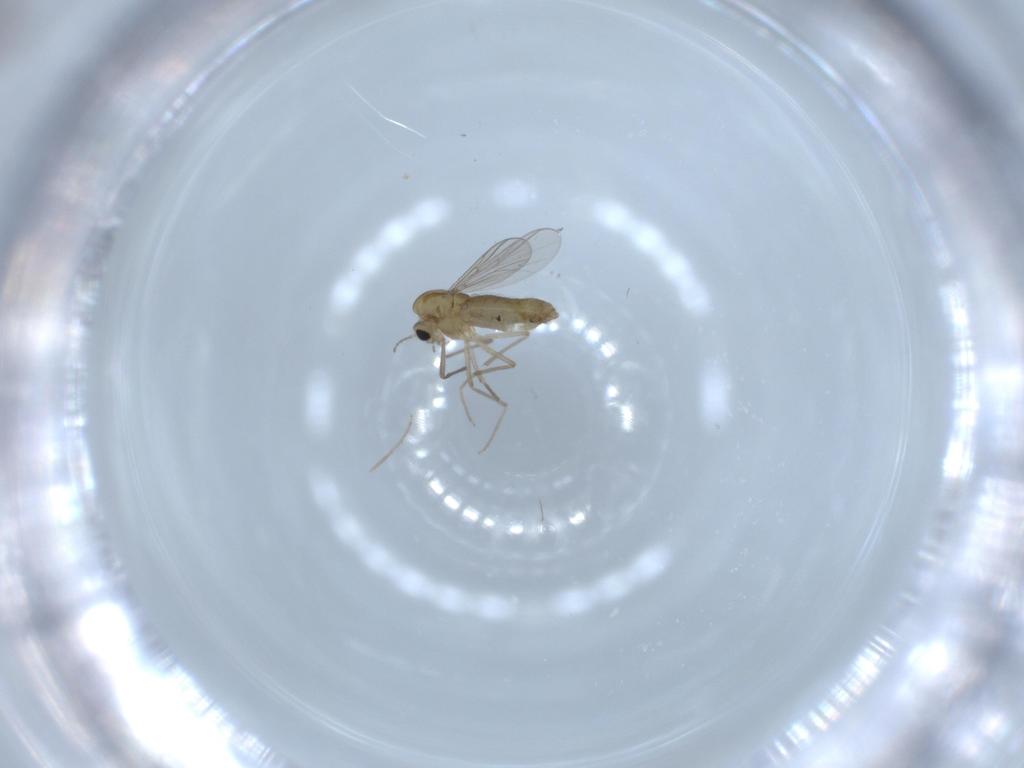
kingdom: Animalia
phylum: Arthropoda
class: Insecta
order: Diptera
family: Chironomidae
